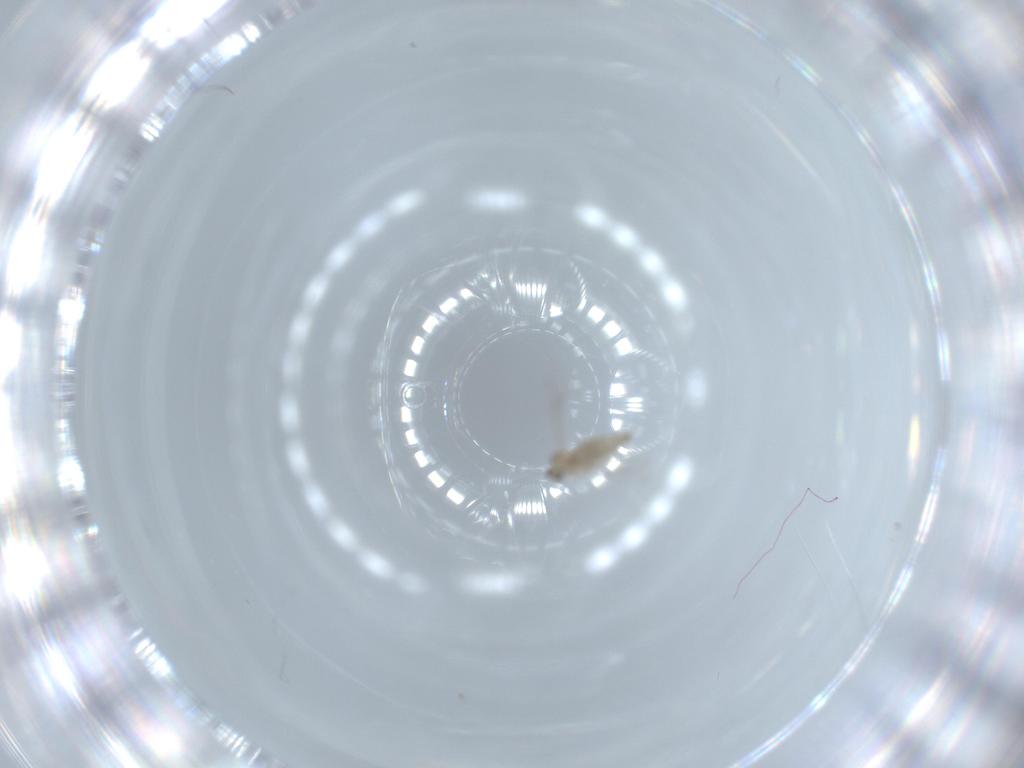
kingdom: Animalia
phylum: Arthropoda
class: Insecta
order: Diptera
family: Cecidomyiidae
